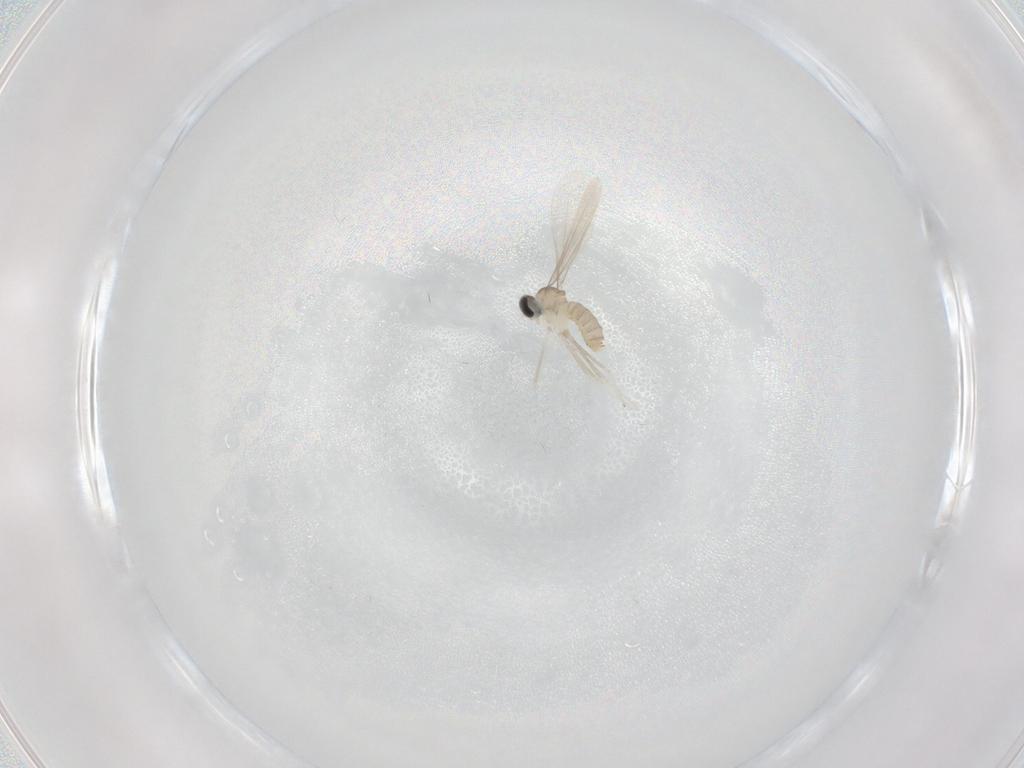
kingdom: Animalia
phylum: Arthropoda
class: Insecta
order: Diptera
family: Cecidomyiidae
